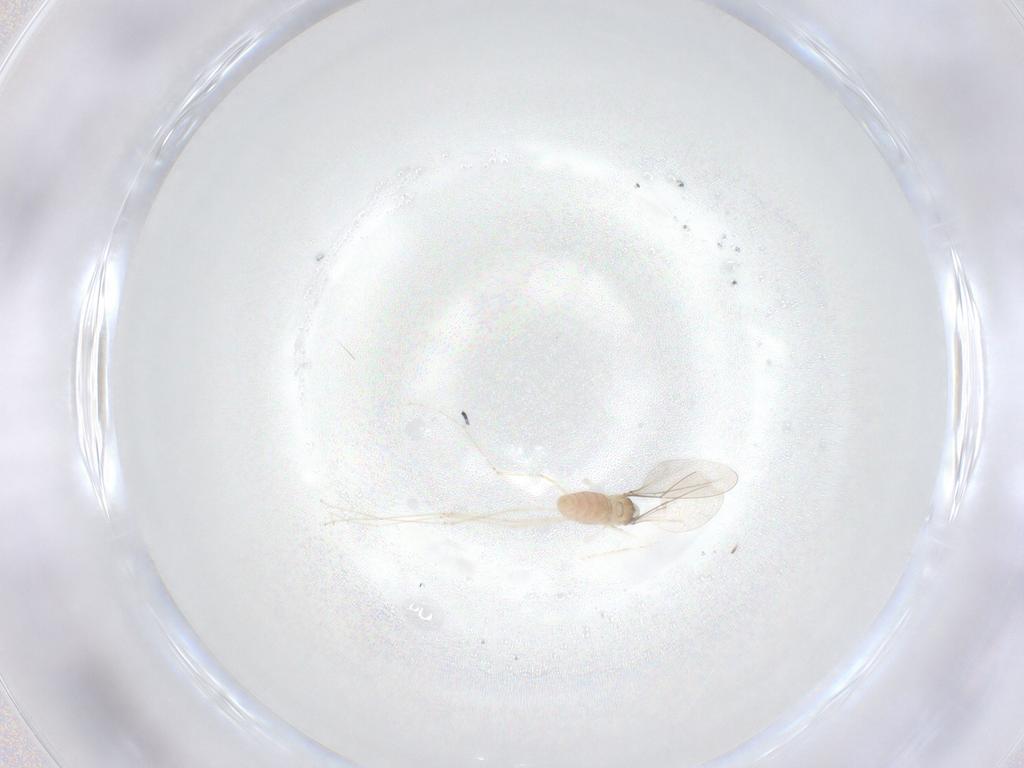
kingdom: Animalia
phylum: Arthropoda
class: Insecta
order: Diptera
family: Cecidomyiidae
